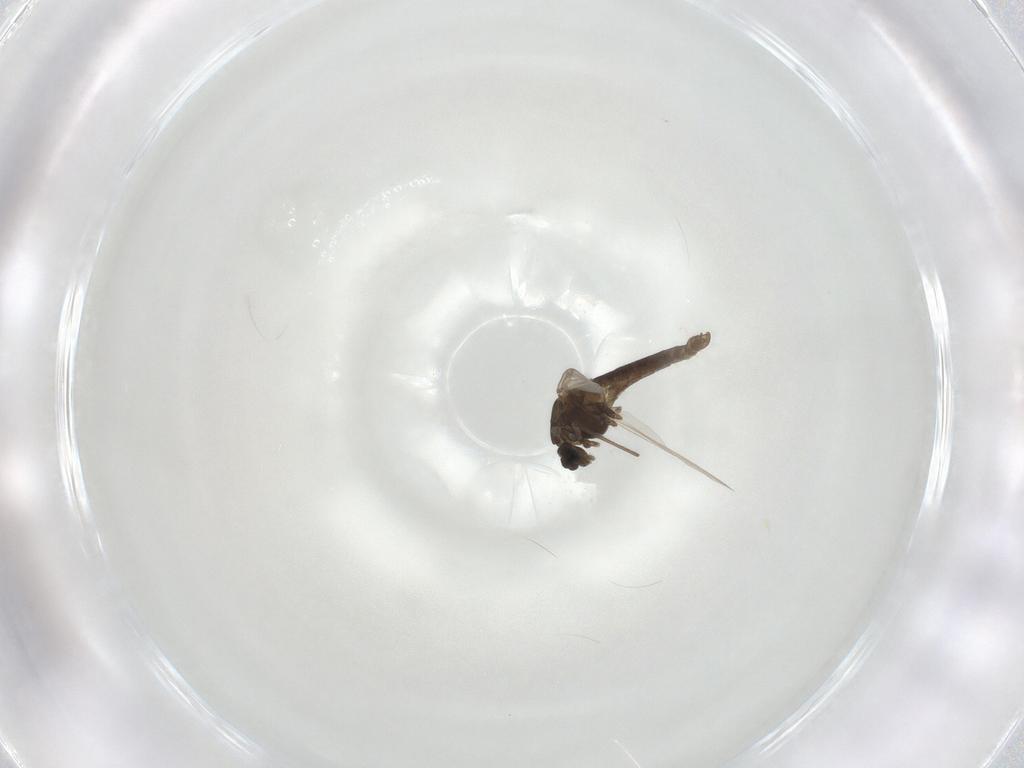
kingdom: Animalia
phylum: Arthropoda
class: Insecta
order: Diptera
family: Chironomidae
